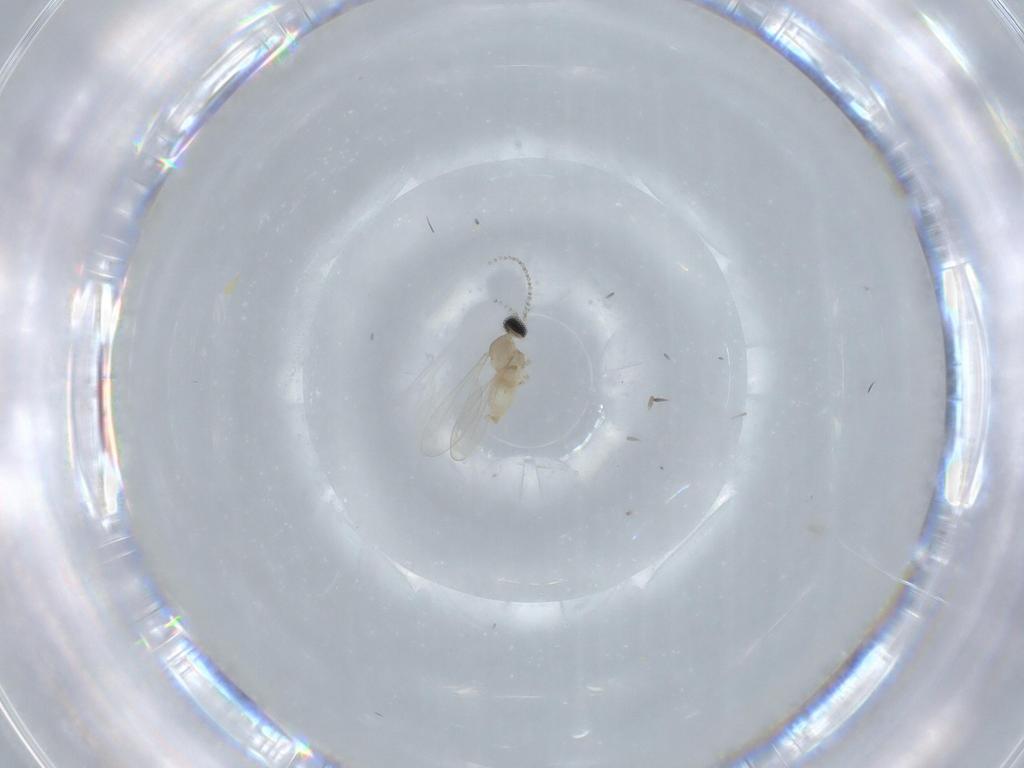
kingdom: Animalia
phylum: Arthropoda
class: Insecta
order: Diptera
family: Cecidomyiidae
